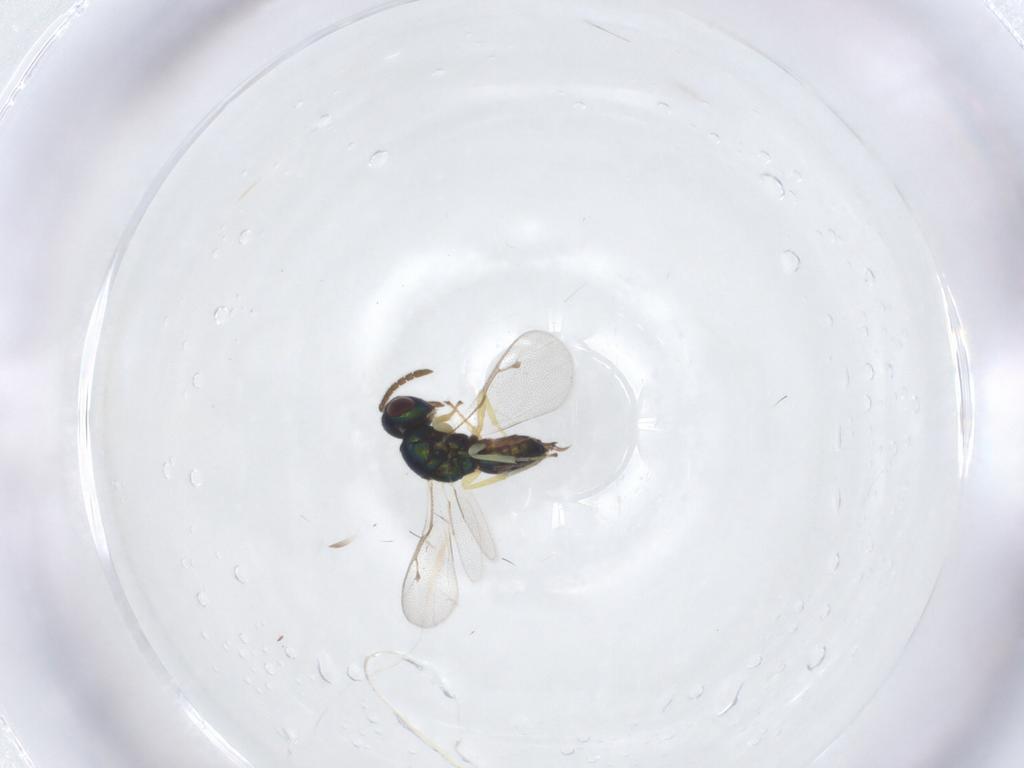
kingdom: Animalia
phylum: Arthropoda
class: Insecta
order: Hymenoptera
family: Pteromalidae
